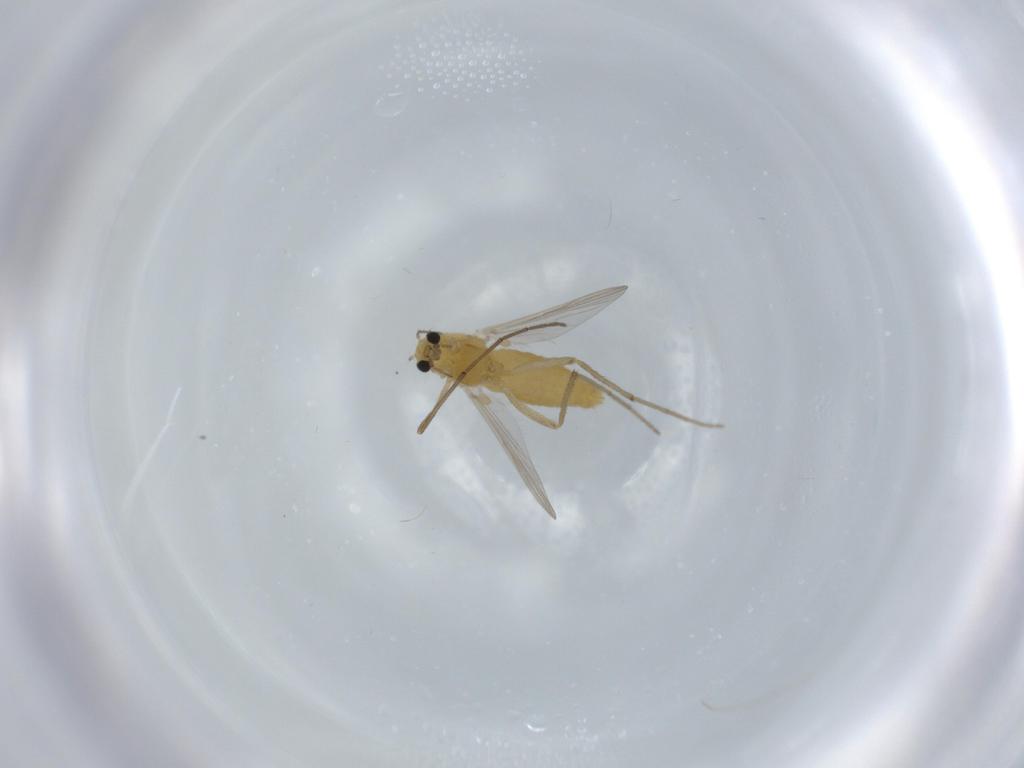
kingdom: Animalia
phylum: Arthropoda
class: Insecta
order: Diptera
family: Chironomidae
